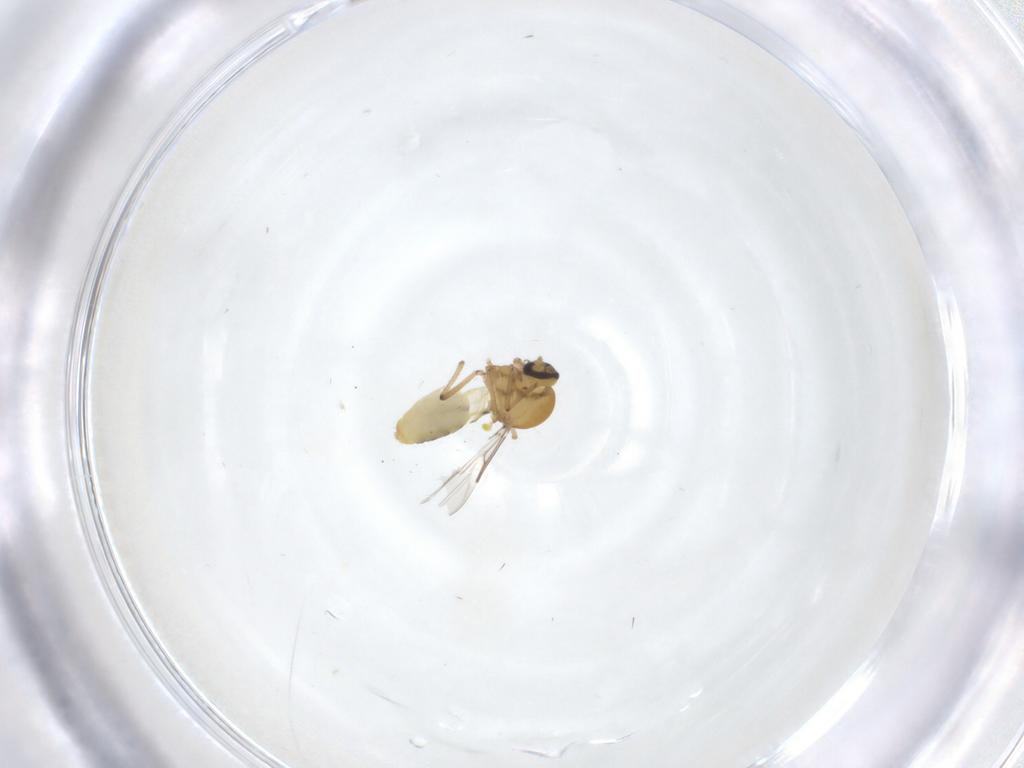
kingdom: Animalia
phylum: Arthropoda
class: Insecta
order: Diptera
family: Ceratopogonidae
